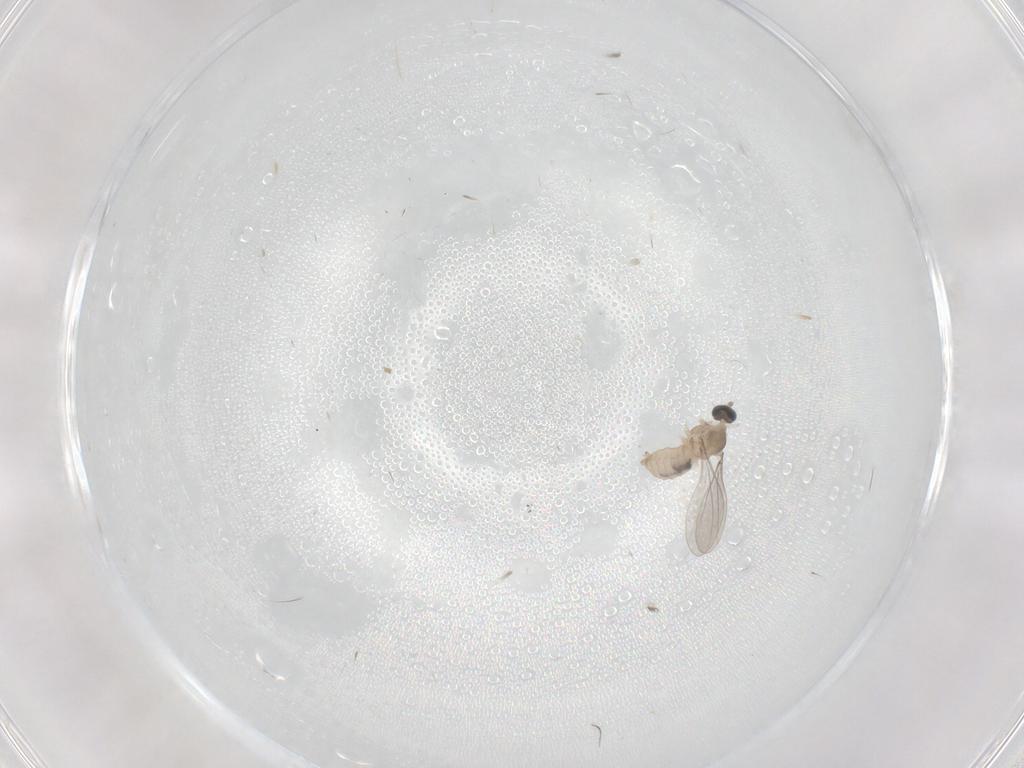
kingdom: Animalia
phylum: Arthropoda
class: Insecta
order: Diptera
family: Phoridae
